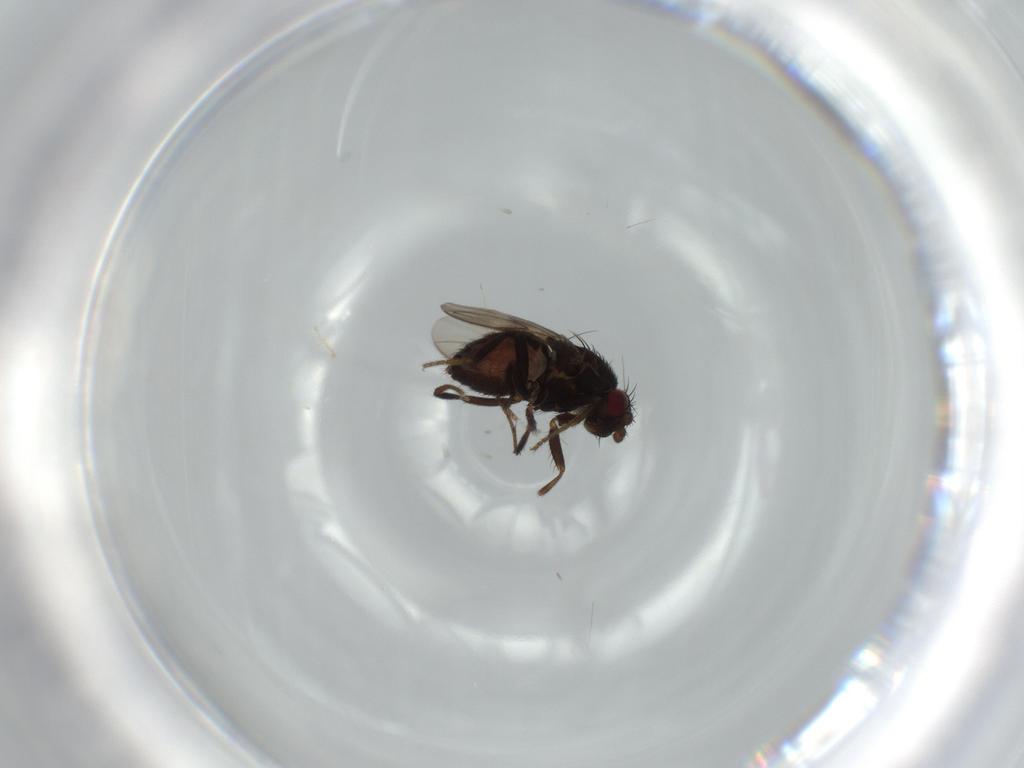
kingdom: Animalia
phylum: Arthropoda
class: Insecta
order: Diptera
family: Sphaeroceridae
